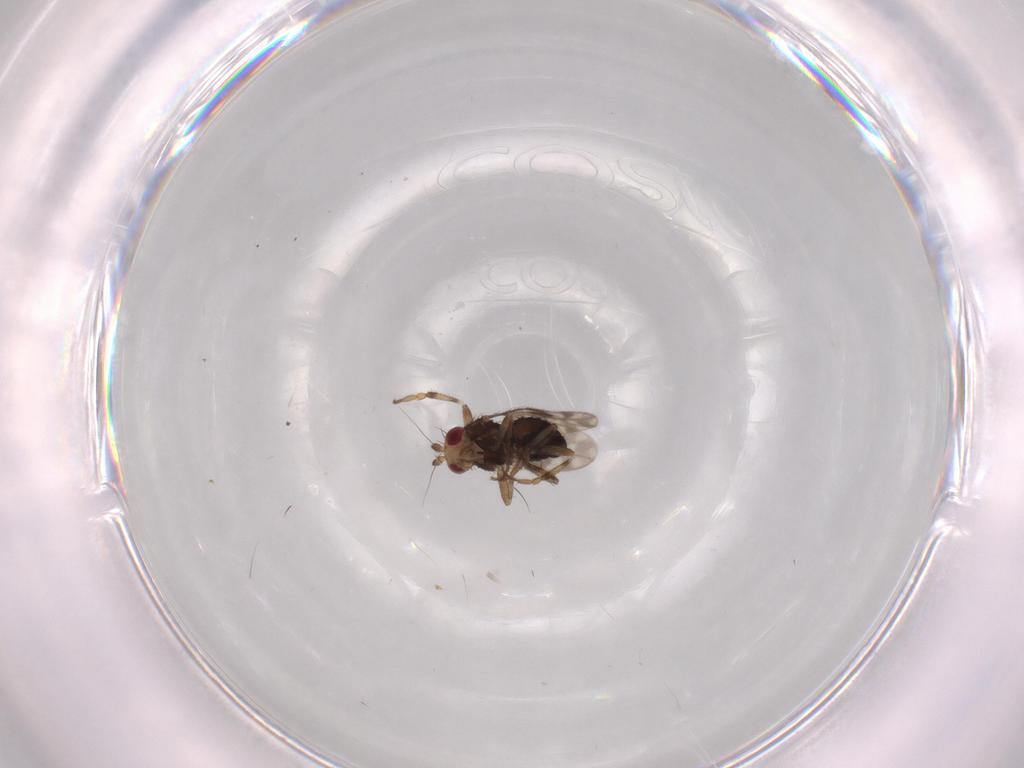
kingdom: Animalia
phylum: Arthropoda
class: Insecta
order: Diptera
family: Sphaeroceridae
